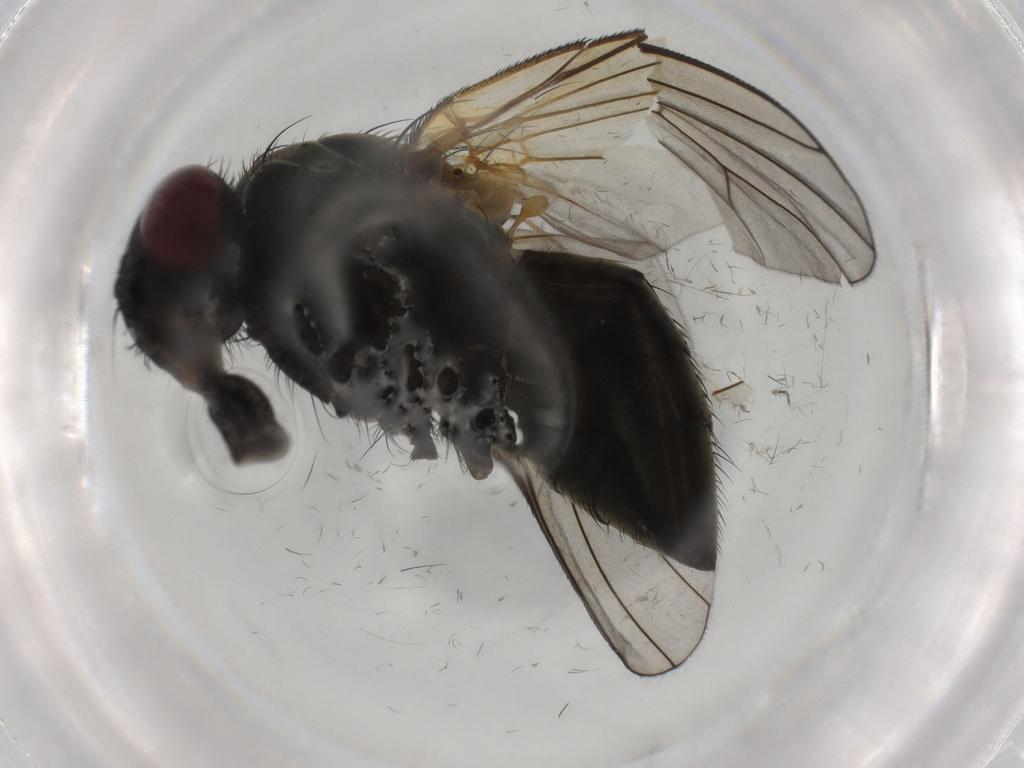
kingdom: Animalia
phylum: Arthropoda
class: Insecta
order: Diptera
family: Muscidae
